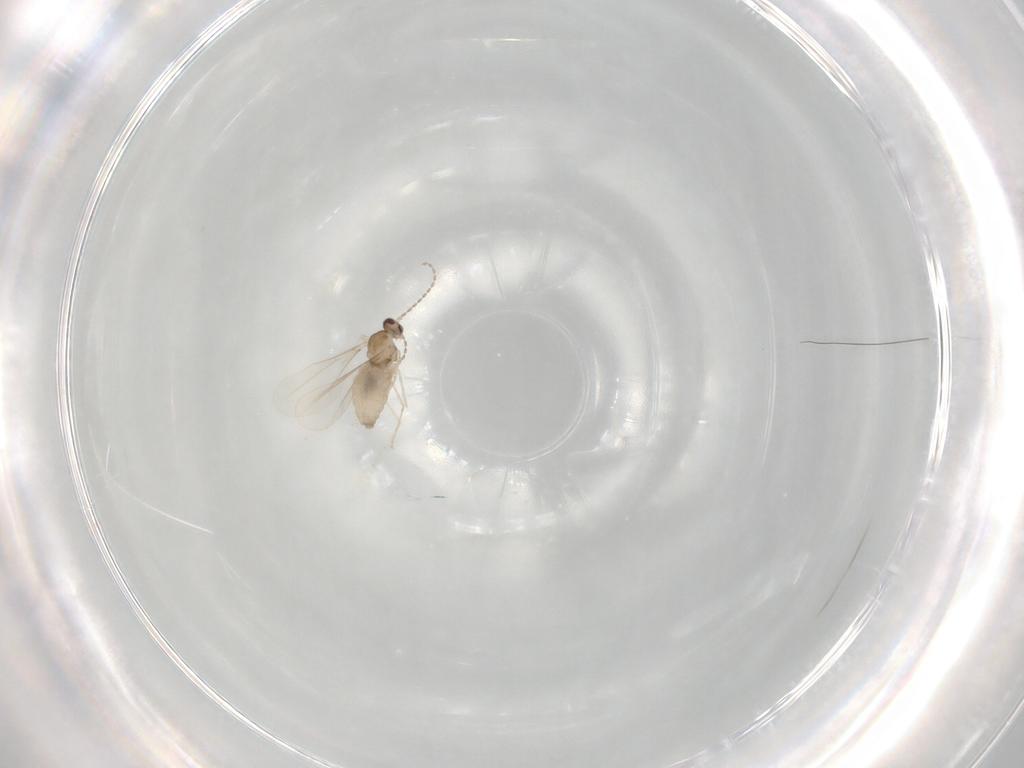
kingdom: Animalia
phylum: Arthropoda
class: Insecta
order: Diptera
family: Cecidomyiidae
